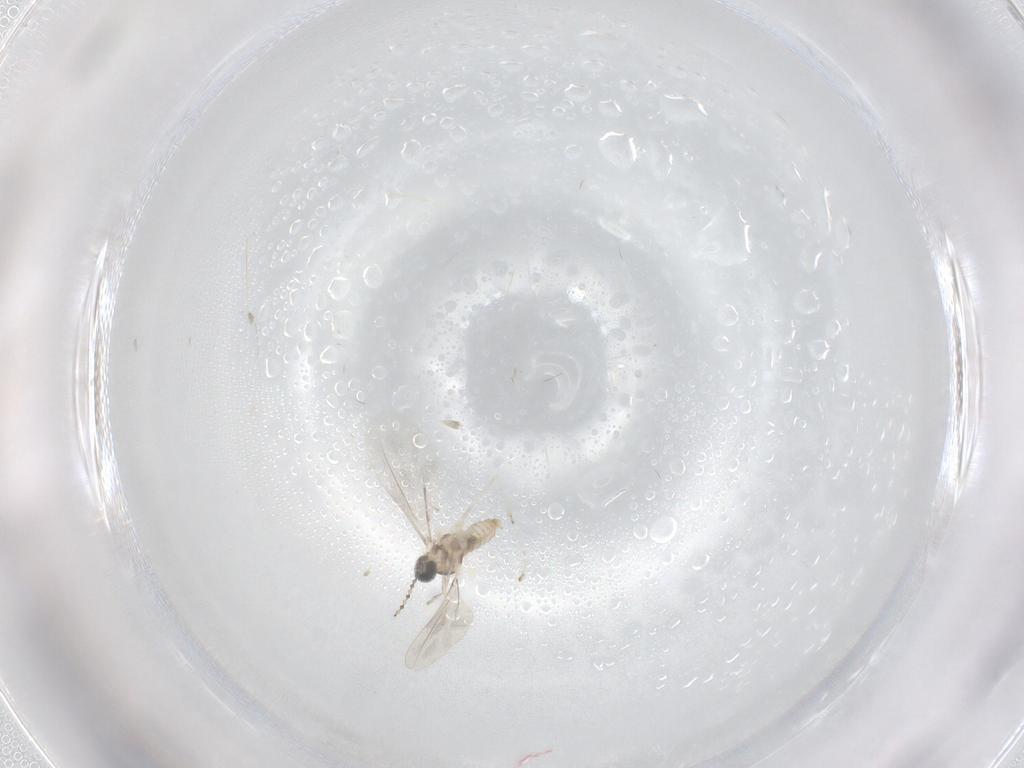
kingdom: Animalia
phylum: Arthropoda
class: Insecta
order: Diptera
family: Cecidomyiidae
